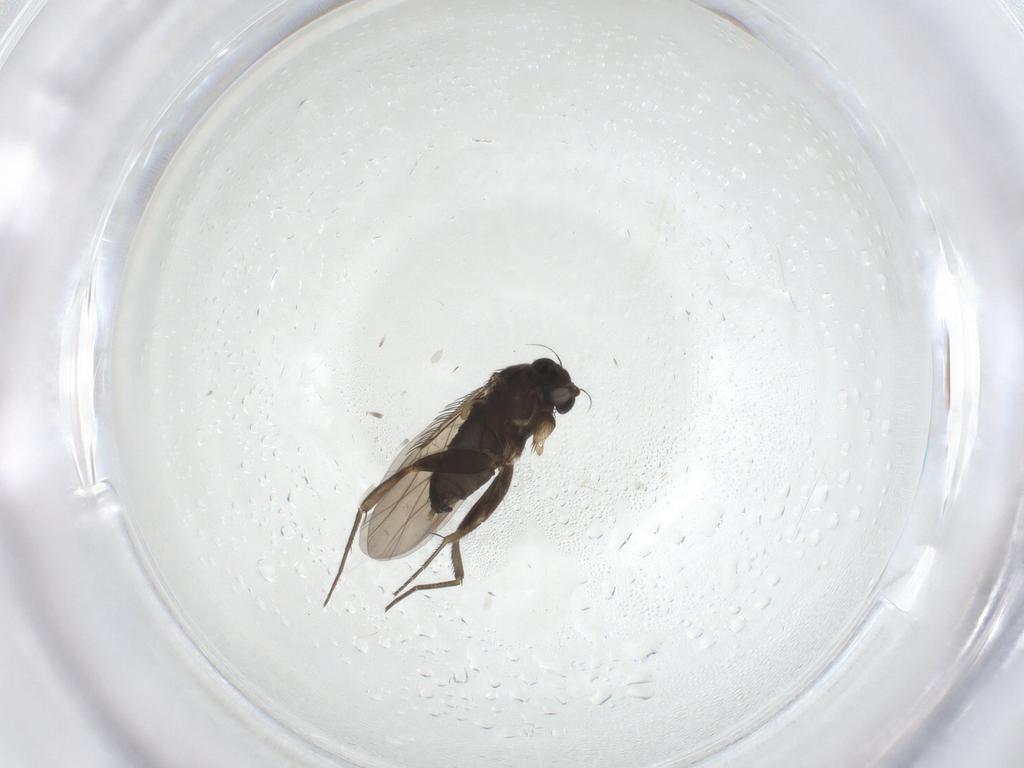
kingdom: Animalia
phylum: Arthropoda
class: Insecta
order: Diptera
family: Phoridae
